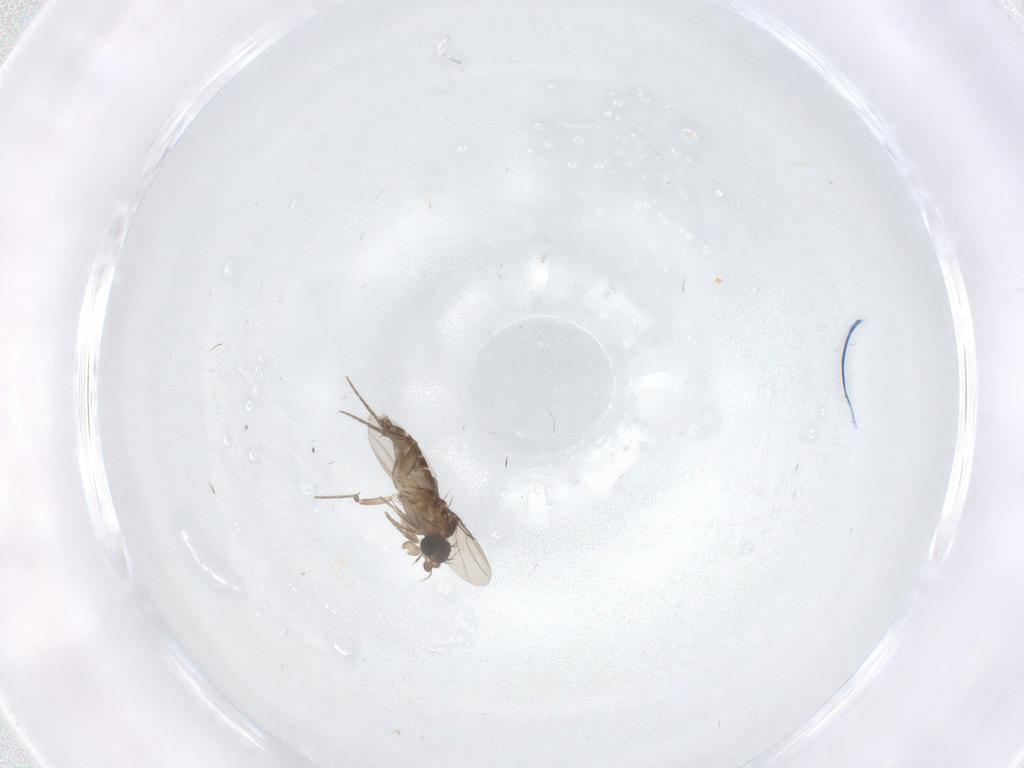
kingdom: Animalia
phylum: Arthropoda
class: Insecta
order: Diptera
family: Phoridae
